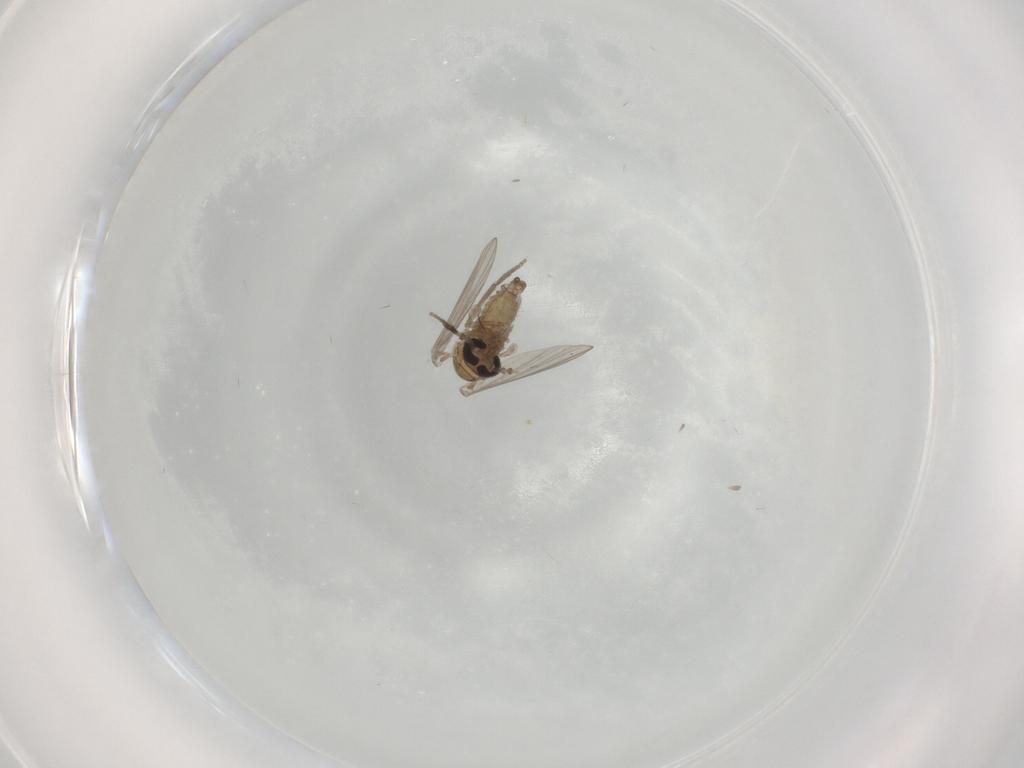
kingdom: Animalia
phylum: Arthropoda
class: Insecta
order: Diptera
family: Psychodidae
